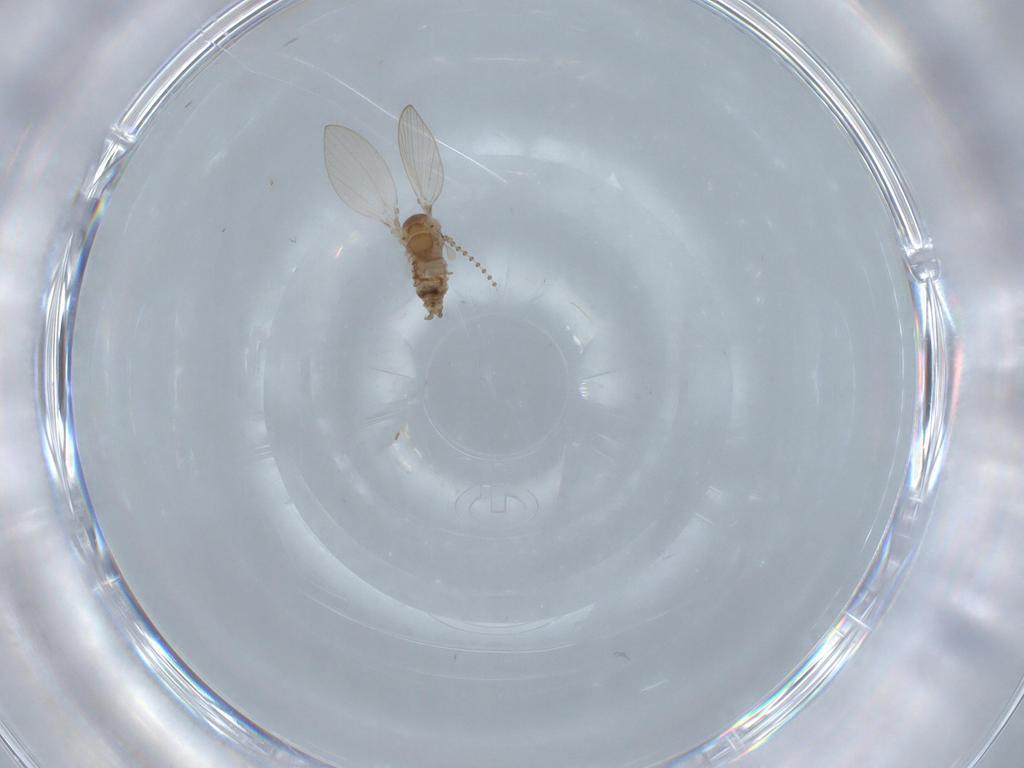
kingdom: Animalia
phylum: Arthropoda
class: Insecta
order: Diptera
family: Psychodidae
